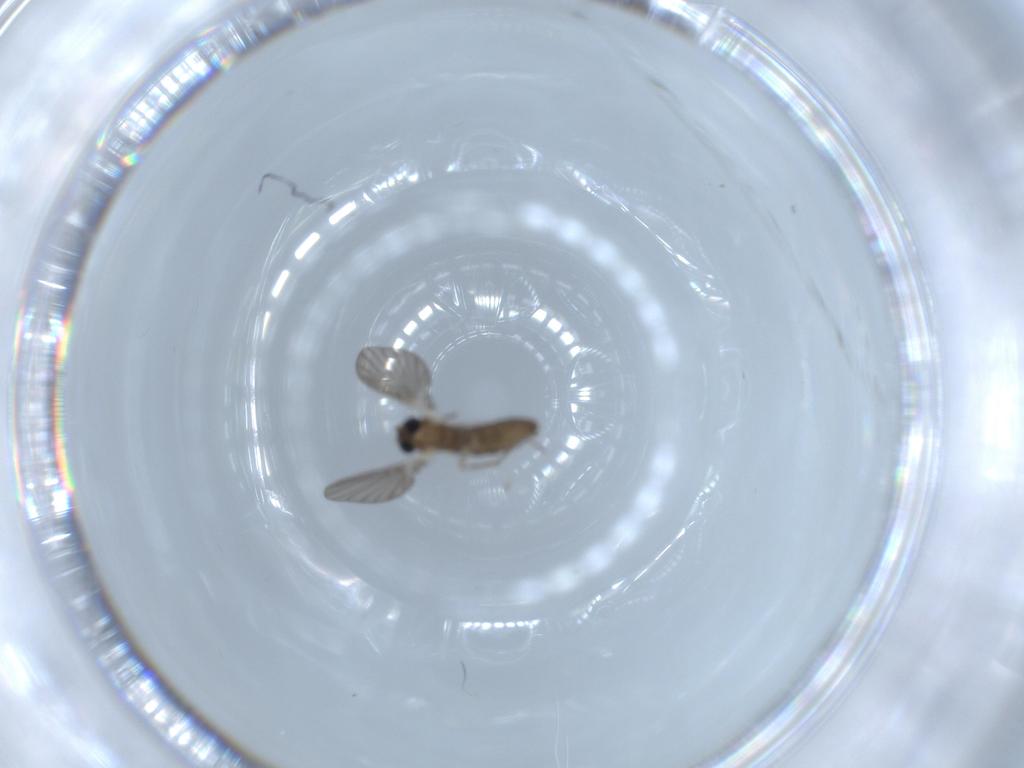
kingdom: Animalia
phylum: Arthropoda
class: Insecta
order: Diptera
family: Psychodidae
